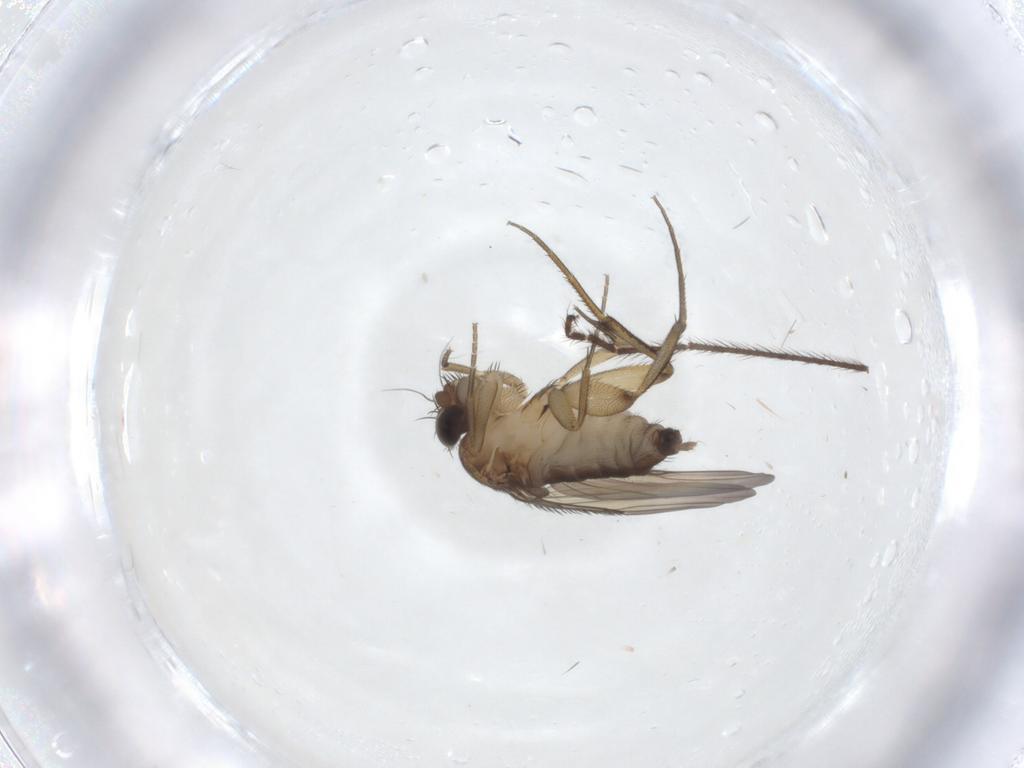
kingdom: Animalia
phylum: Arthropoda
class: Insecta
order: Diptera
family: Phoridae
